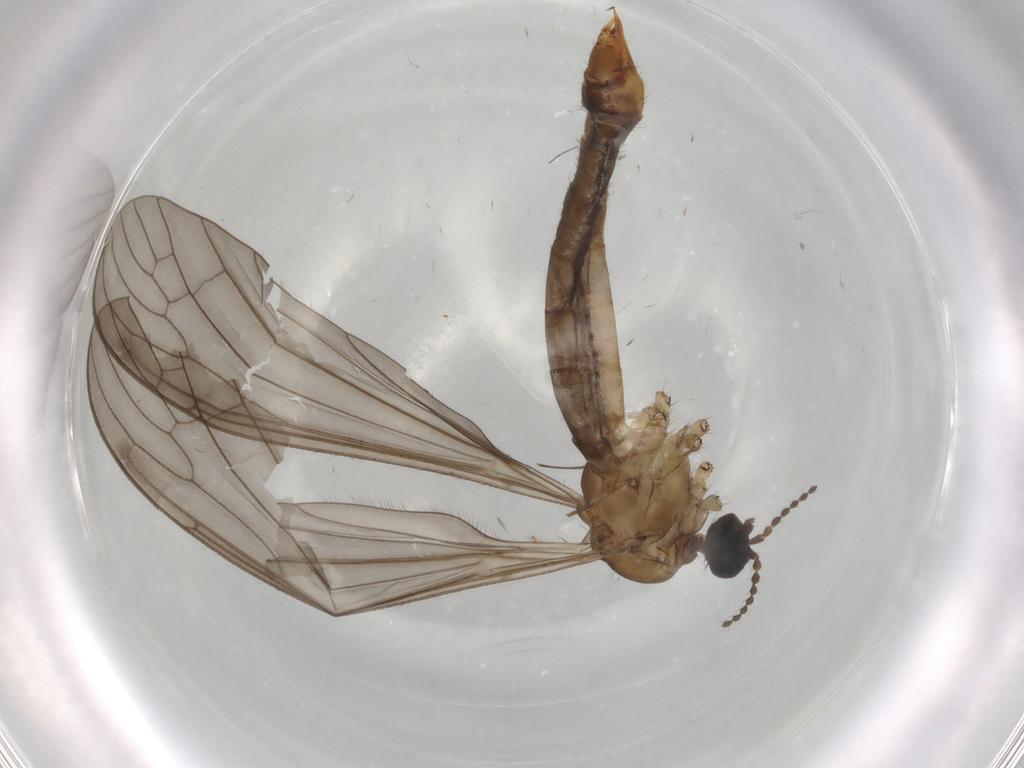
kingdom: Animalia
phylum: Arthropoda
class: Insecta
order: Diptera
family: Limoniidae
